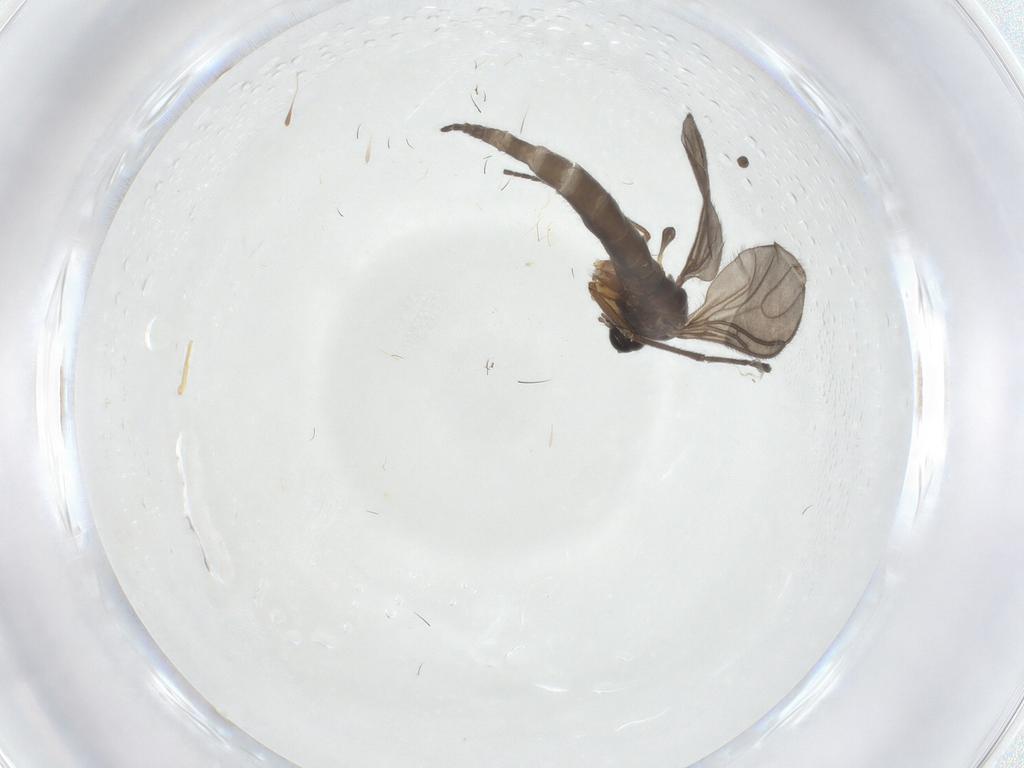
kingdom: Animalia
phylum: Arthropoda
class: Insecta
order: Diptera
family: Sciaridae
